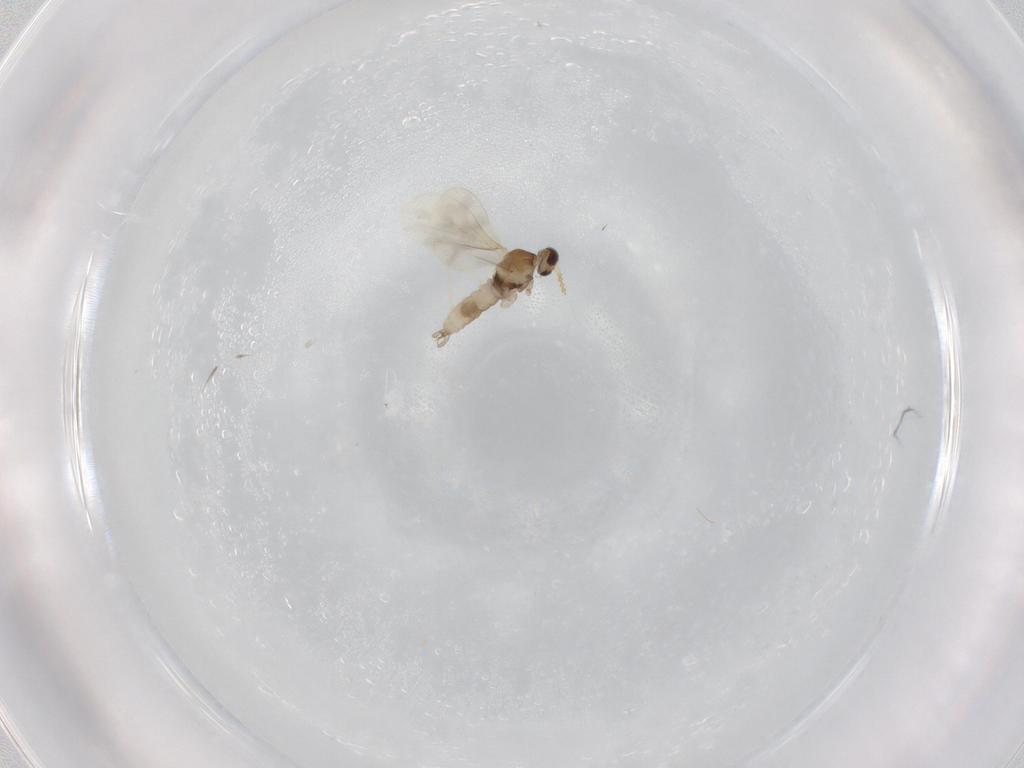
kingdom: Animalia
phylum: Arthropoda
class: Insecta
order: Diptera
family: Cecidomyiidae
